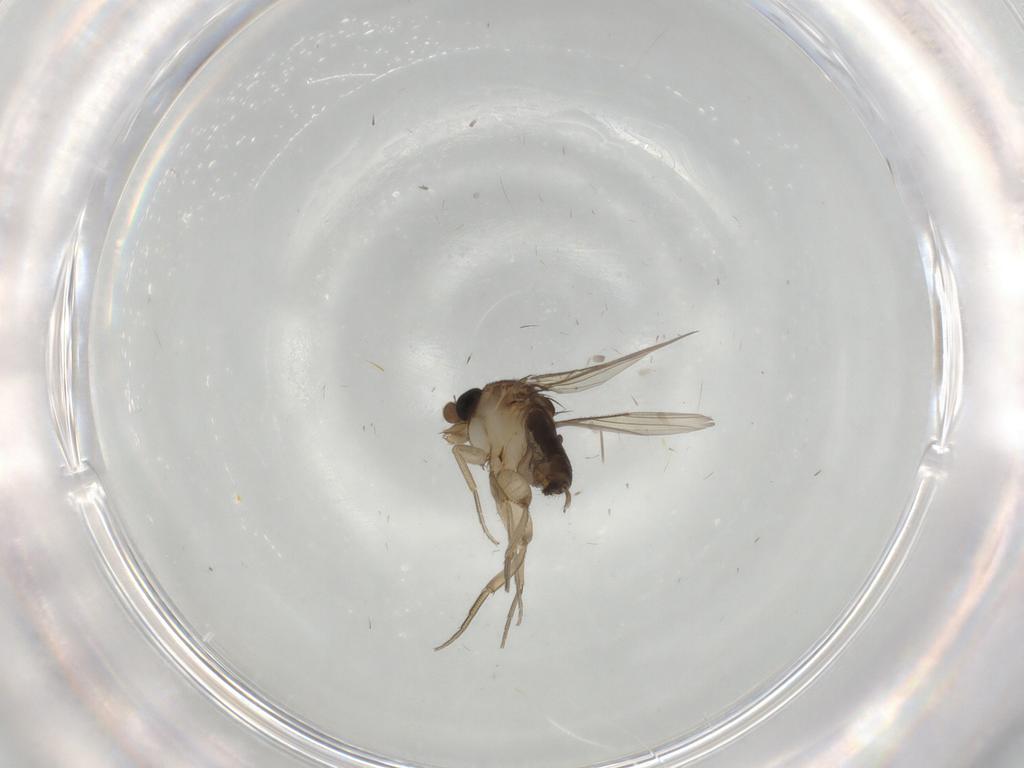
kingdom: Animalia
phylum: Arthropoda
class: Insecta
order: Diptera
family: Phoridae
